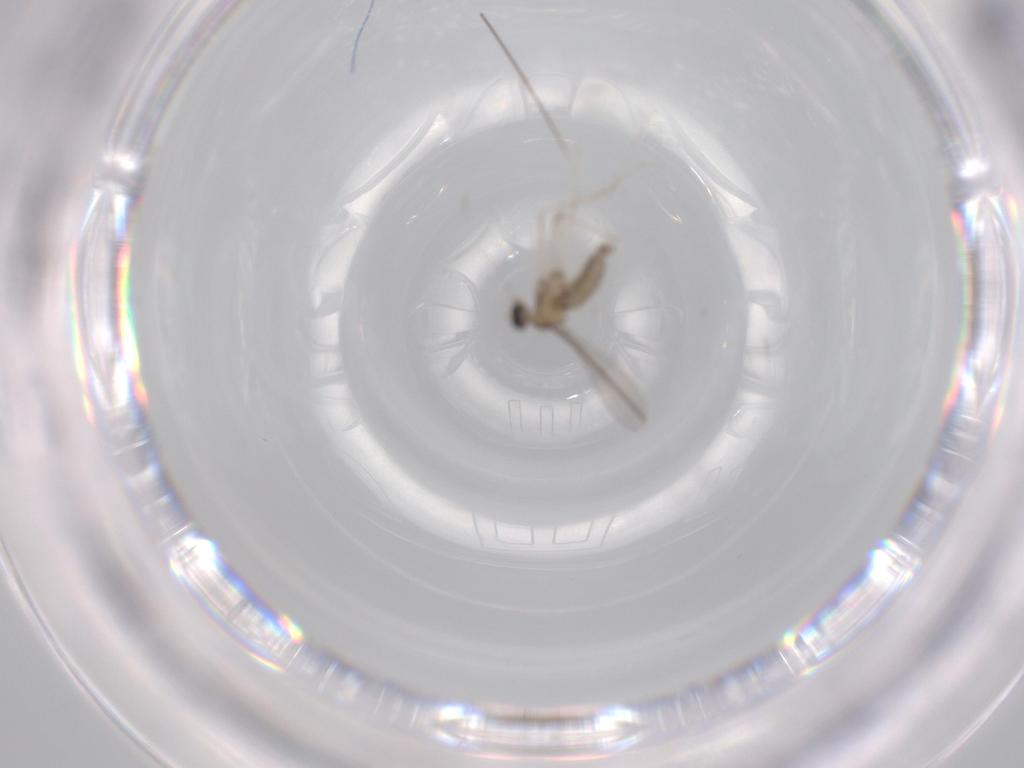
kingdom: Animalia
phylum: Arthropoda
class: Insecta
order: Diptera
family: Cecidomyiidae
